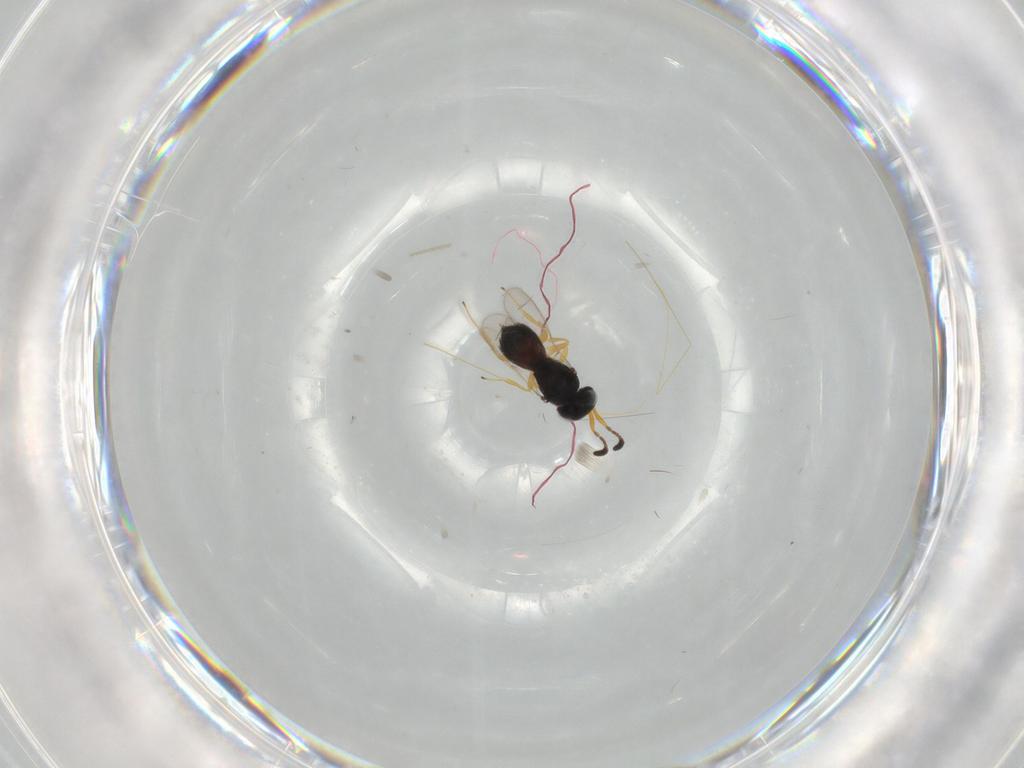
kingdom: Animalia
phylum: Arthropoda
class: Insecta
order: Hymenoptera
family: Scelionidae
